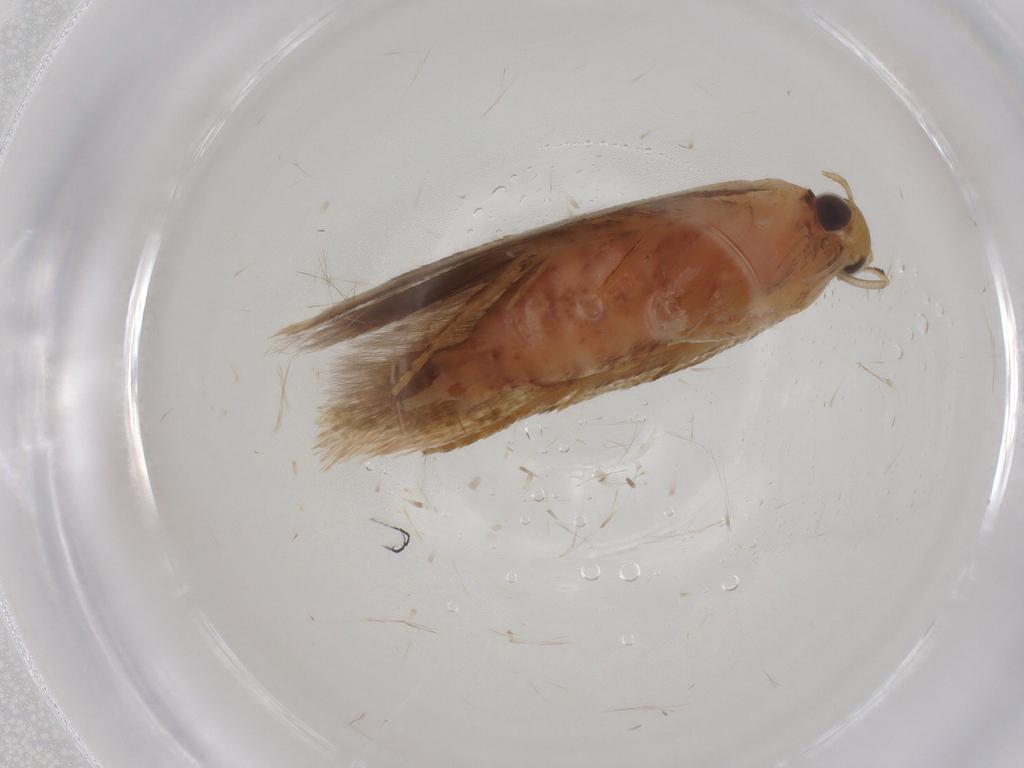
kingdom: Animalia
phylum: Arthropoda
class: Insecta
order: Lepidoptera
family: Gelechiidae
